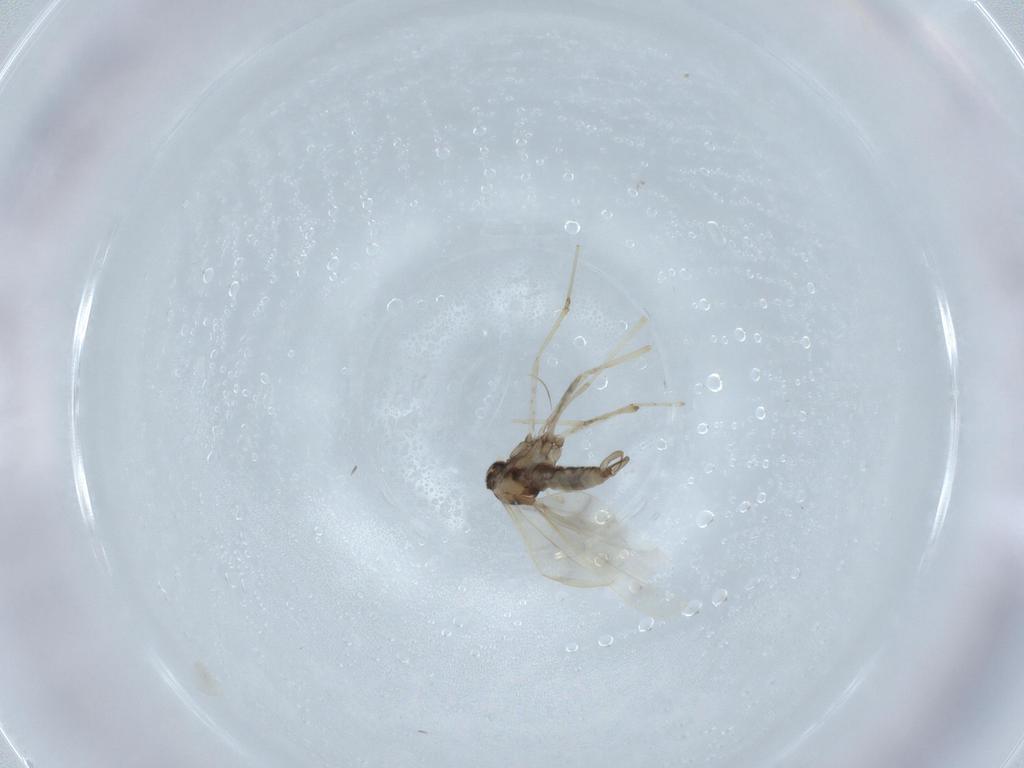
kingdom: Animalia
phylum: Arthropoda
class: Insecta
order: Diptera
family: Cecidomyiidae
